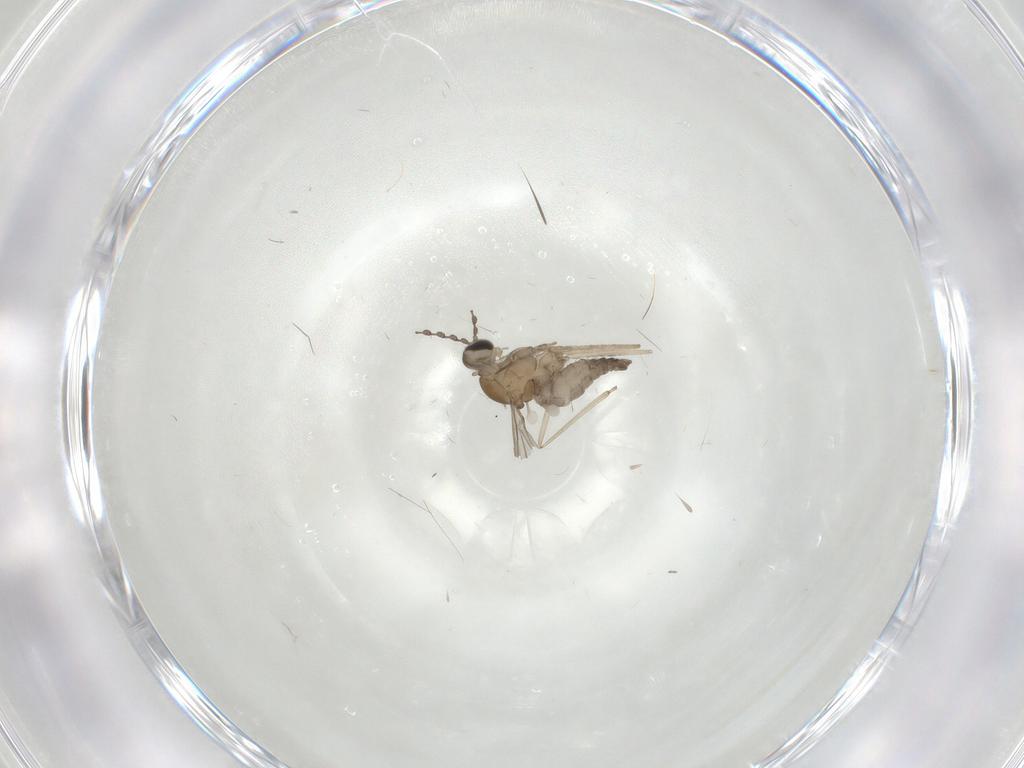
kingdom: Animalia
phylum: Arthropoda
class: Insecta
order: Diptera
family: Cecidomyiidae
